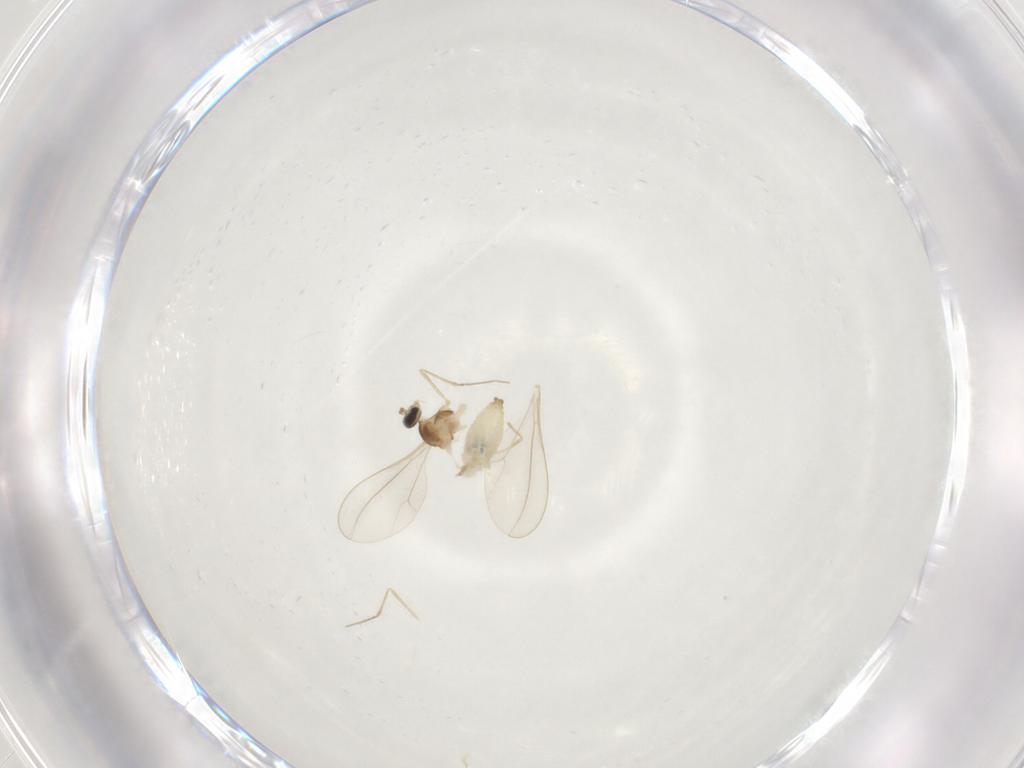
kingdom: Animalia
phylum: Arthropoda
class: Insecta
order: Diptera
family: Cecidomyiidae
